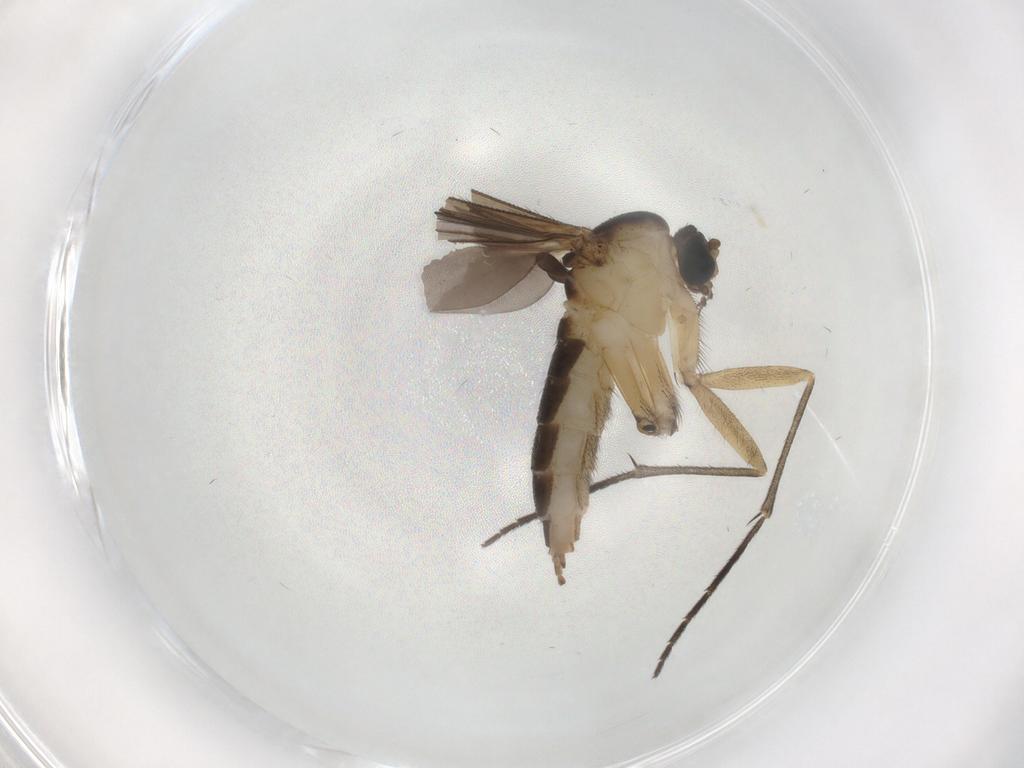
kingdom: Animalia
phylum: Arthropoda
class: Insecta
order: Diptera
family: Sciaridae
